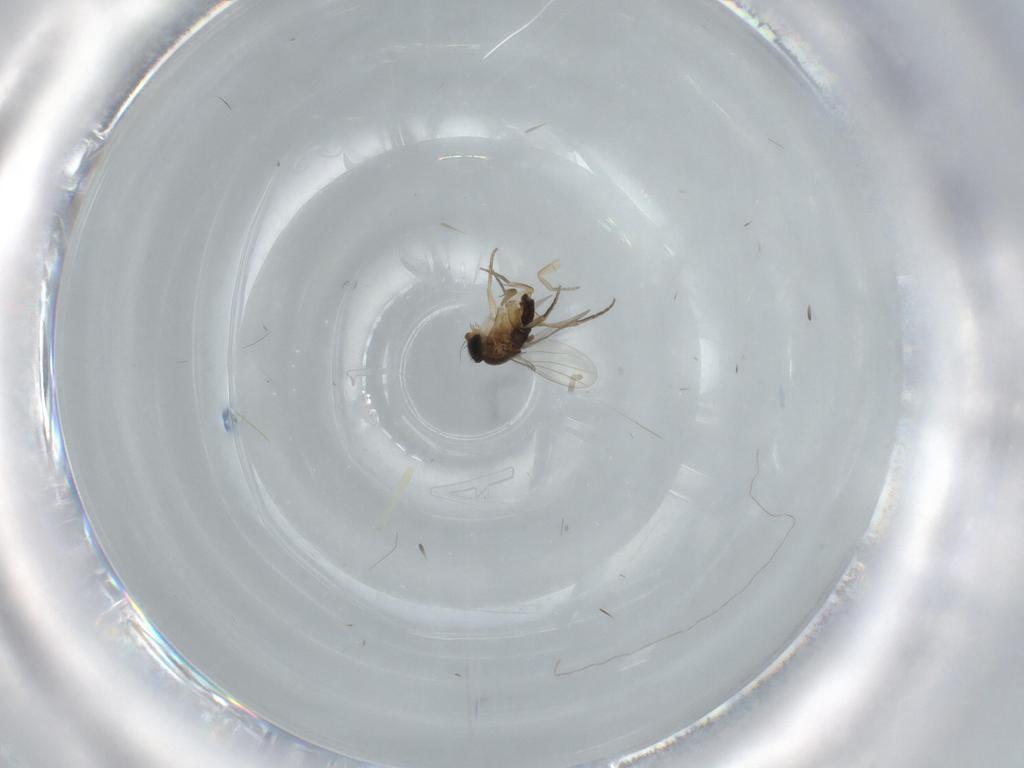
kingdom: Animalia
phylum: Arthropoda
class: Insecta
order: Diptera
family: Phoridae
